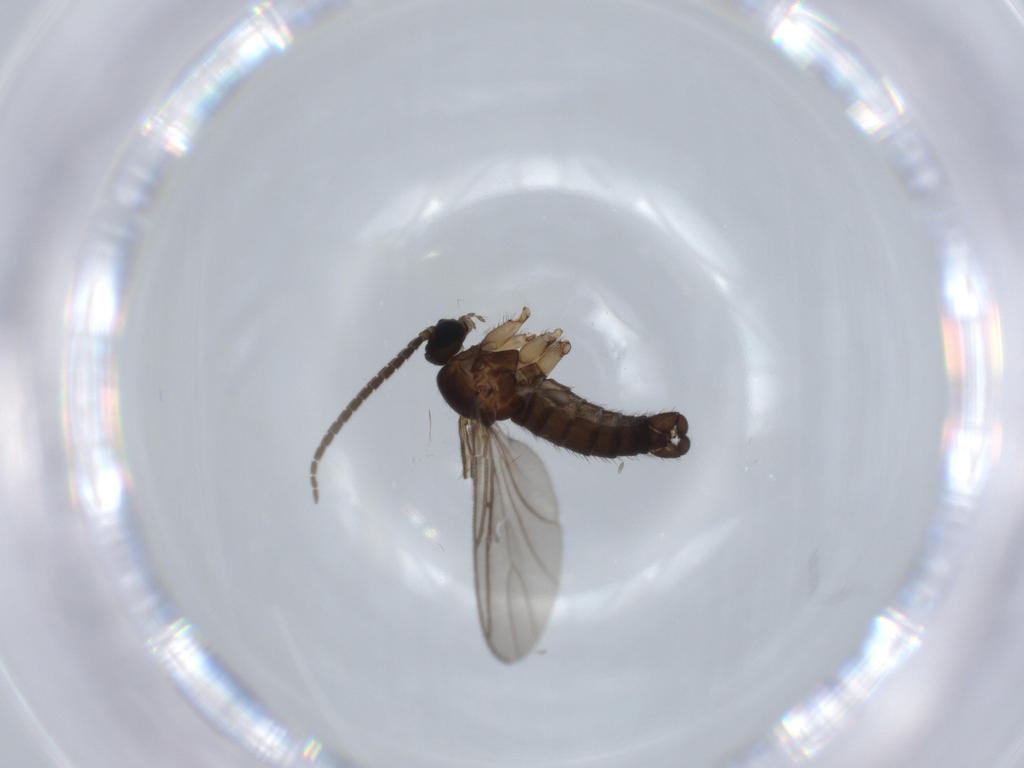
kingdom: Animalia
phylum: Arthropoda
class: Insecta
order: Diptera
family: Sciaridae
